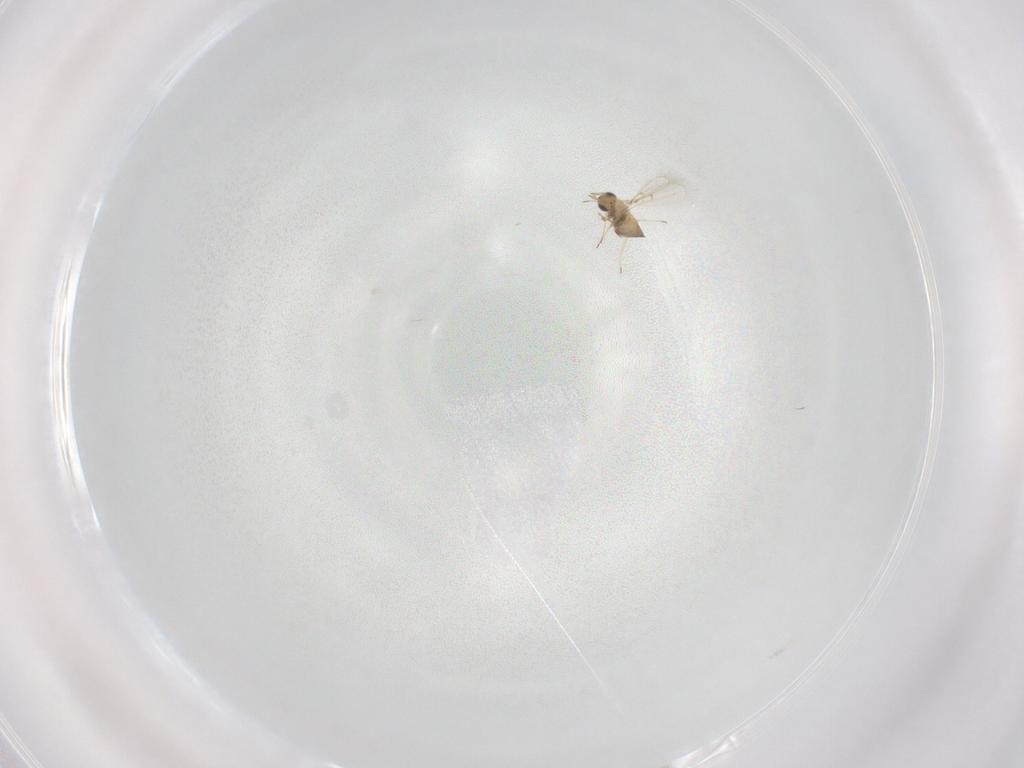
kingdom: Animalia
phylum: Arthropoda
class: Insecta
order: Hymenoptera
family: Trichogrammatidae
